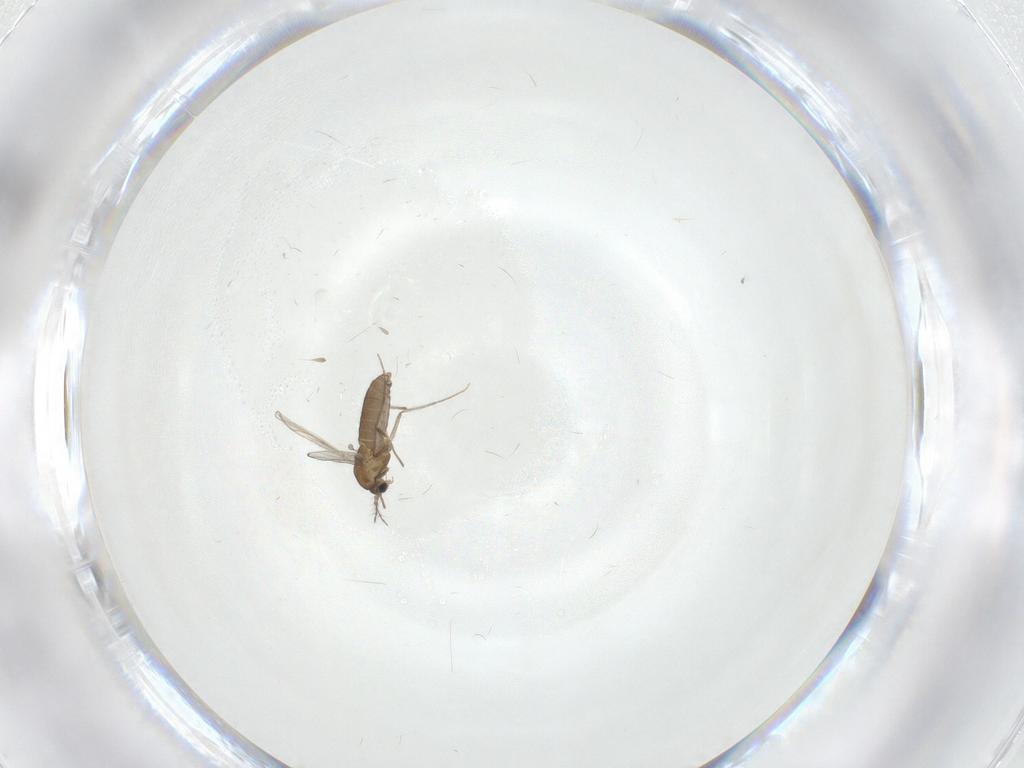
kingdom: Animalia
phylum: Arthropoda
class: Insecta
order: Diptera
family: Chironomidae
